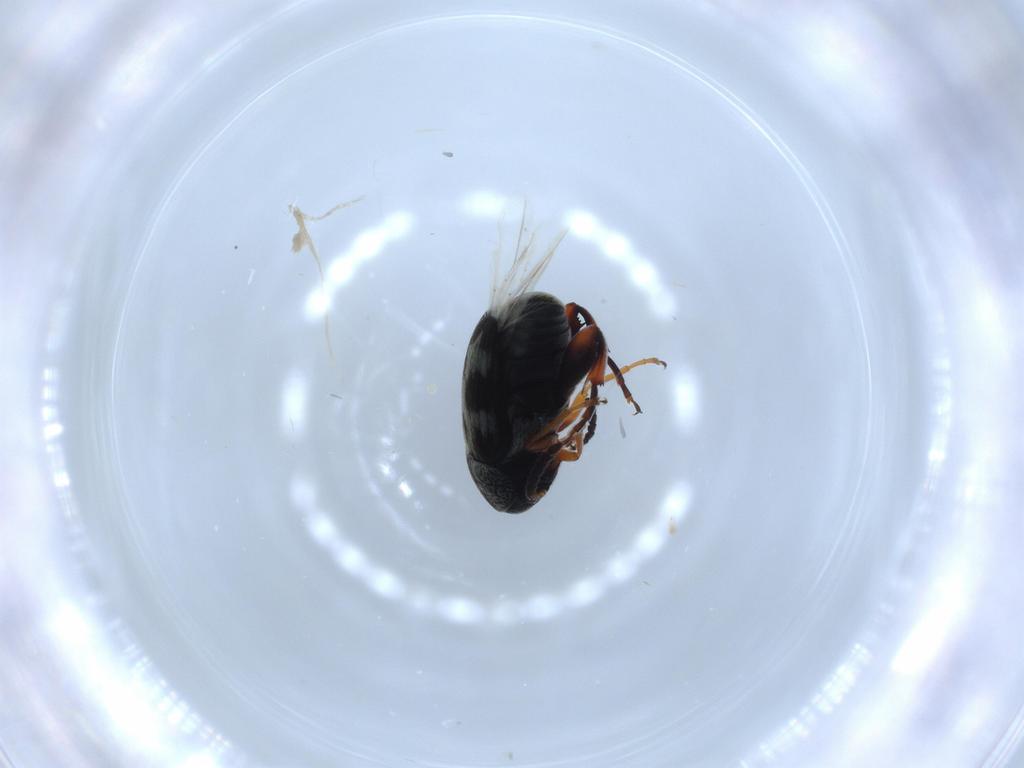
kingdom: Animalia
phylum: Arthropoda
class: Insecta
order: Coleoptera
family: Chrysomelidae
